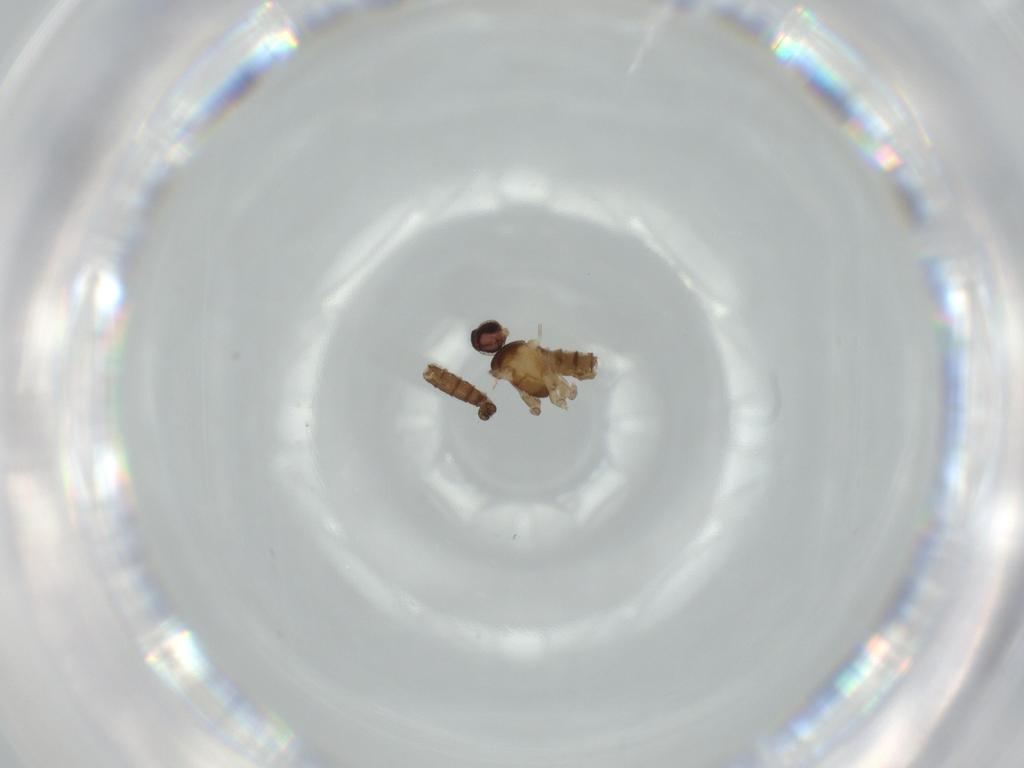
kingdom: Animalia
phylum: Arthropoda
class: Insecta
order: Diptera
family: Cecidomyiidae
